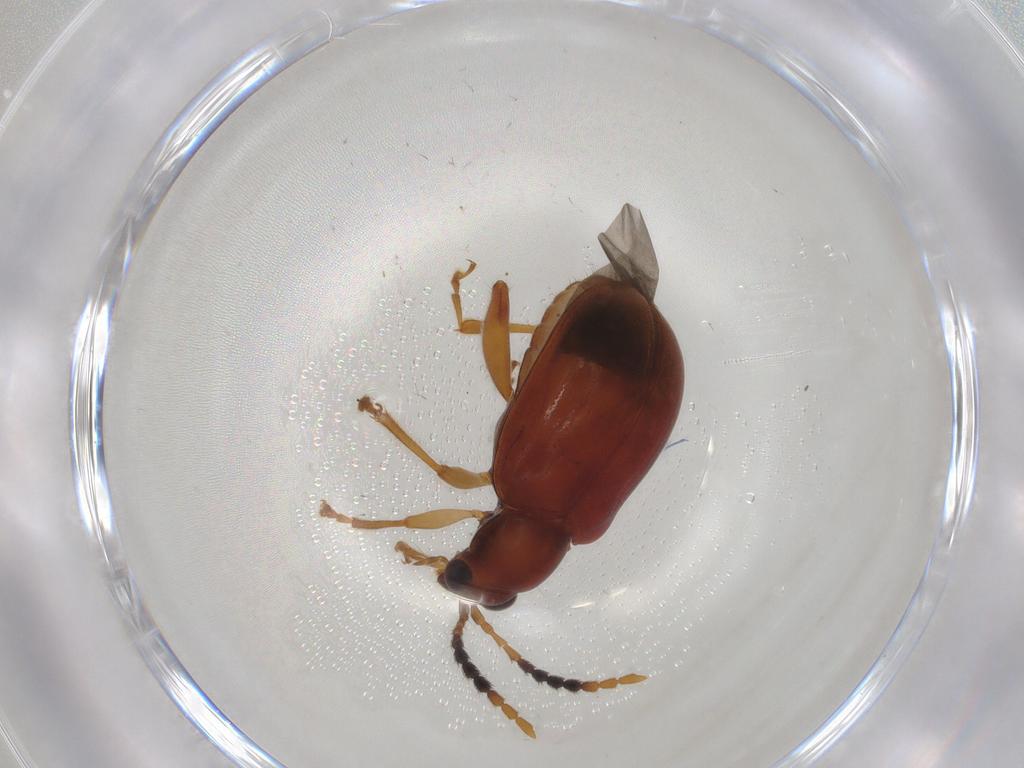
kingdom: Animalia
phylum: Arthropoda
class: Insecta
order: Coleoptera
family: Chrysomelidae
